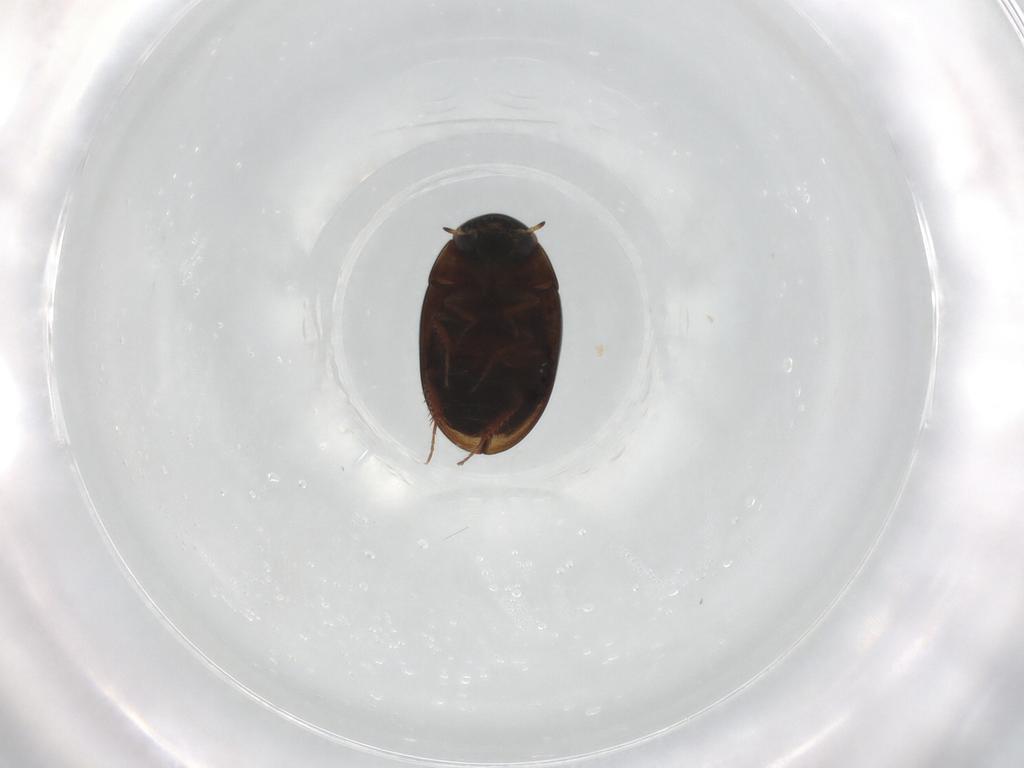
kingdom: Animalia
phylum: Arthropoda
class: Insecta
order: Coleoptera
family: Hydrophilidae
